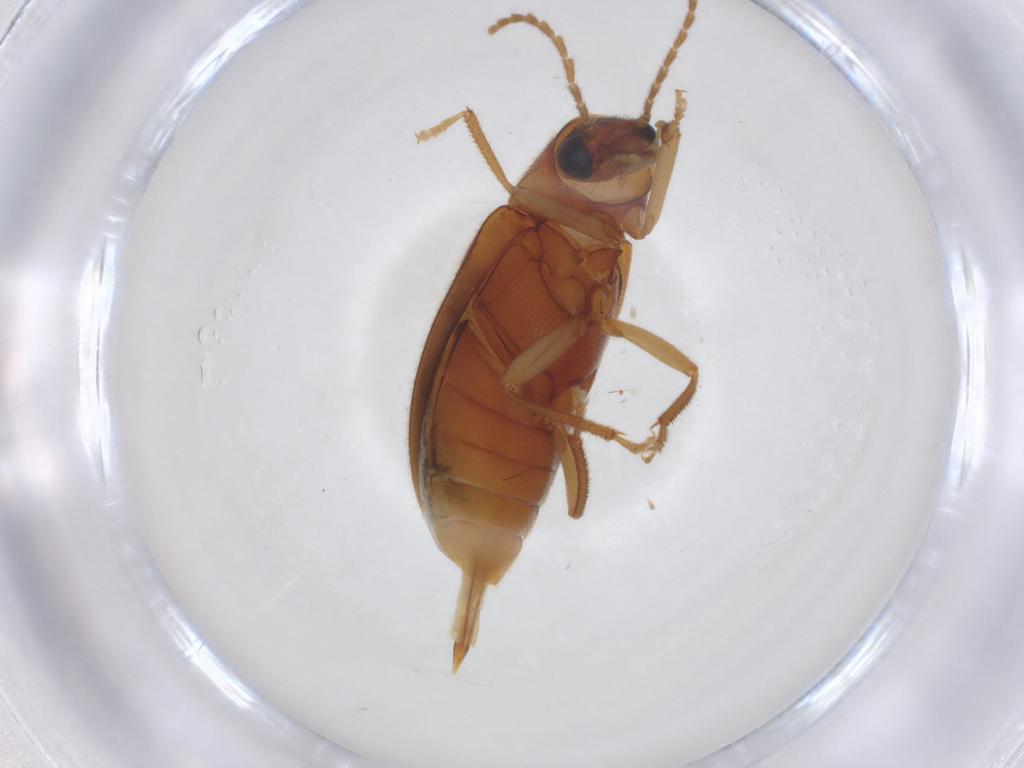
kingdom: Animalia
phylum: Arthropoda
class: Insecta
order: Coleoptera
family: Ptilodactylidae
